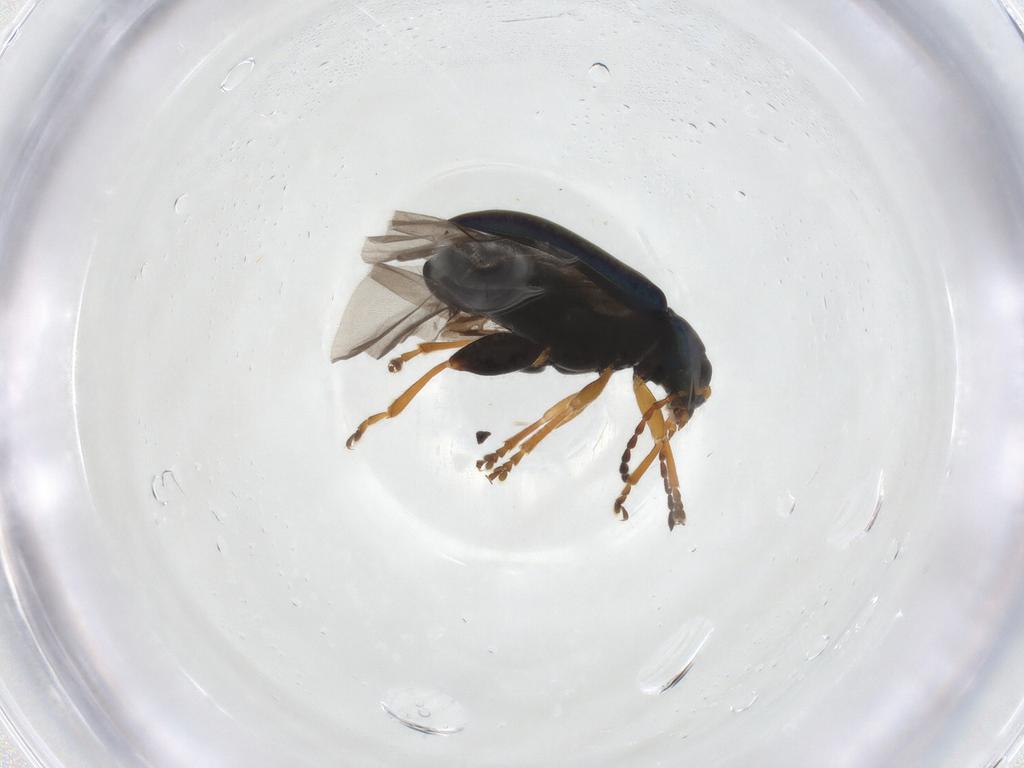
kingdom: Animalia
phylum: Arthropoda
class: Insecta
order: Coleoptera
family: Chrysomelidae
